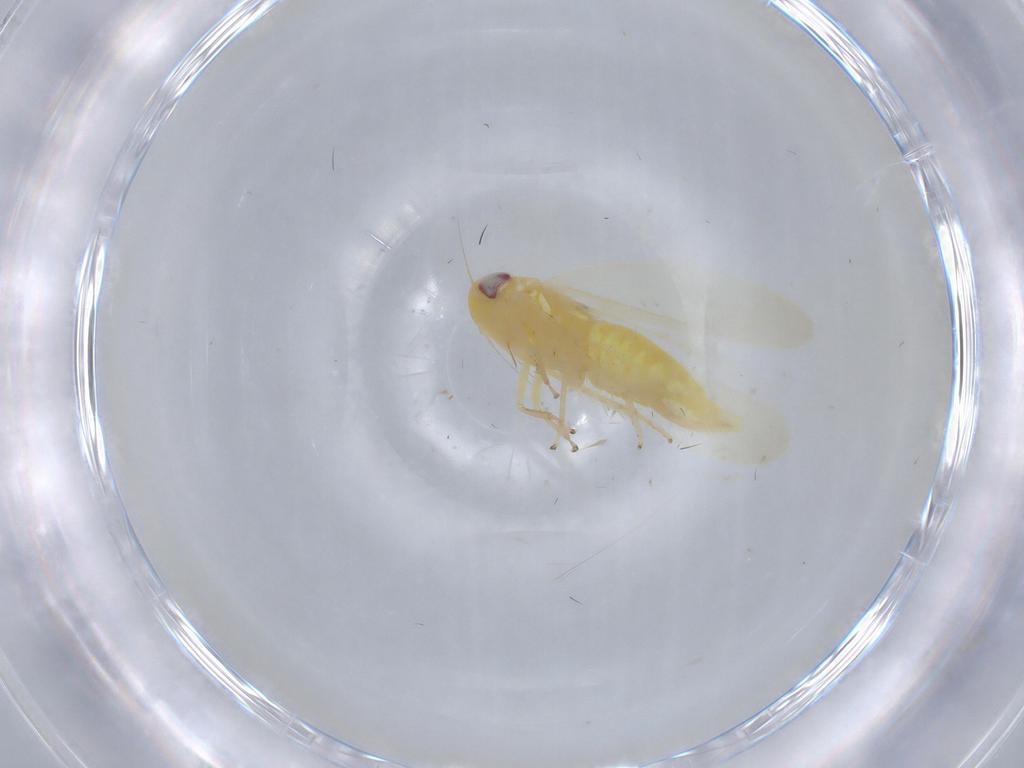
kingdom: Animalia
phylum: Arthropoda
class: Insecta
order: Hemiptera
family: Cicadellidae
